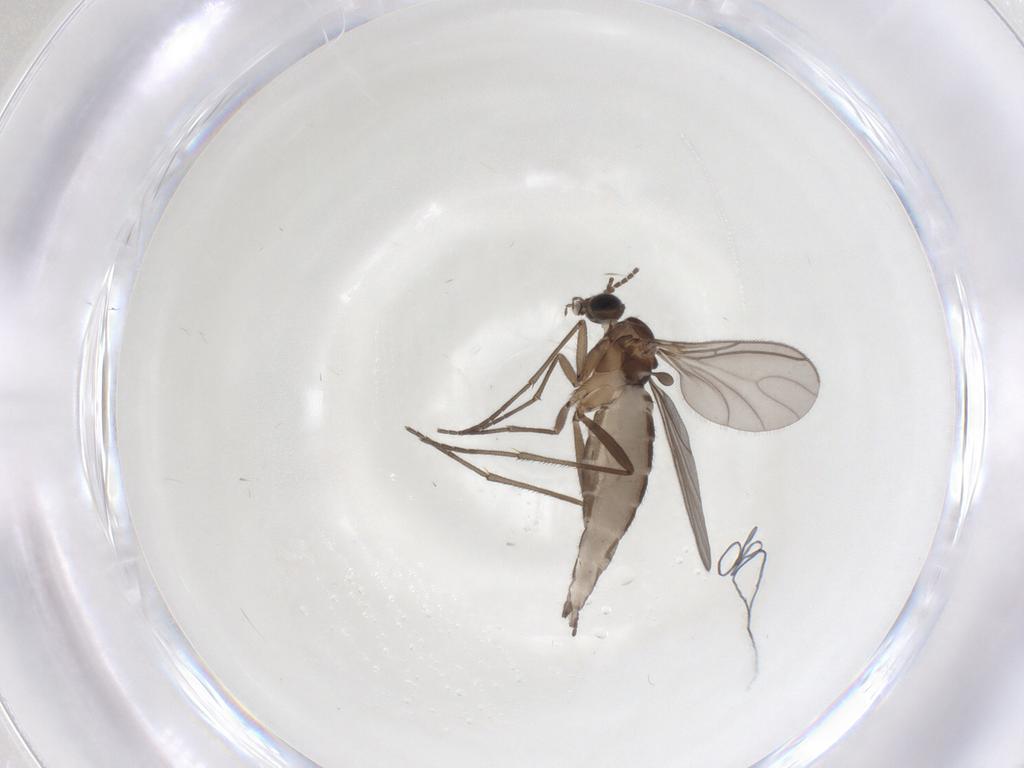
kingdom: Animalia
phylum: Arthropoda
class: Insecta
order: Diptera
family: Sciaridae
